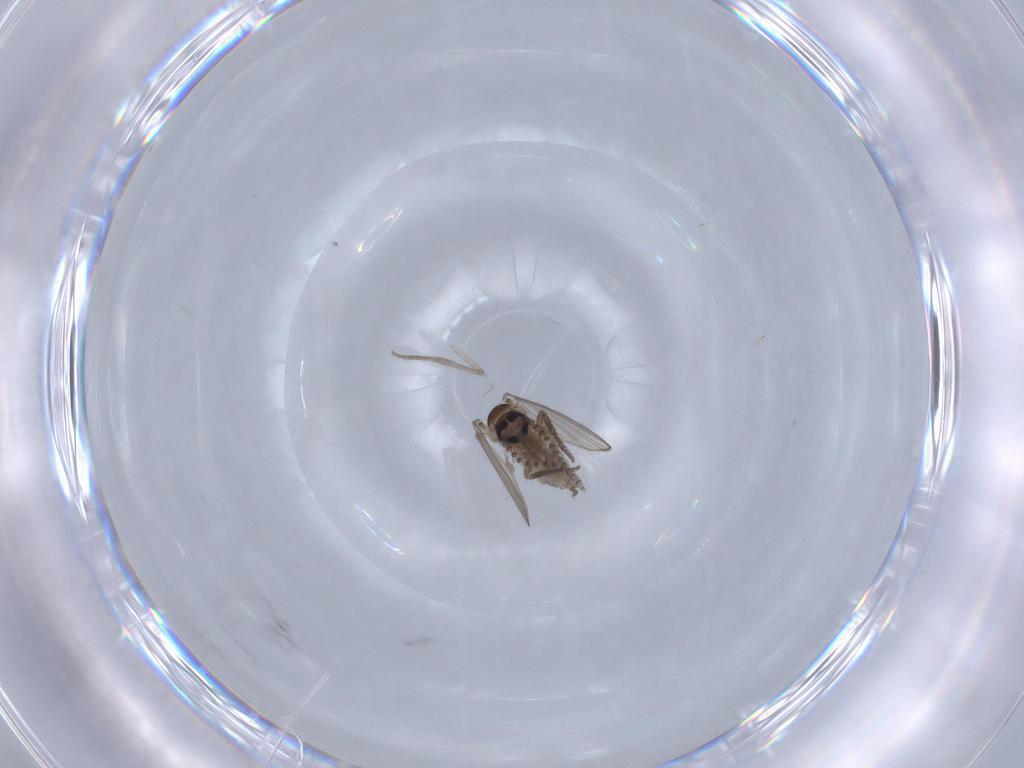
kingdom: Animalia
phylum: Arthropoda
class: Insecta
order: Diptera
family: Psychodidae
